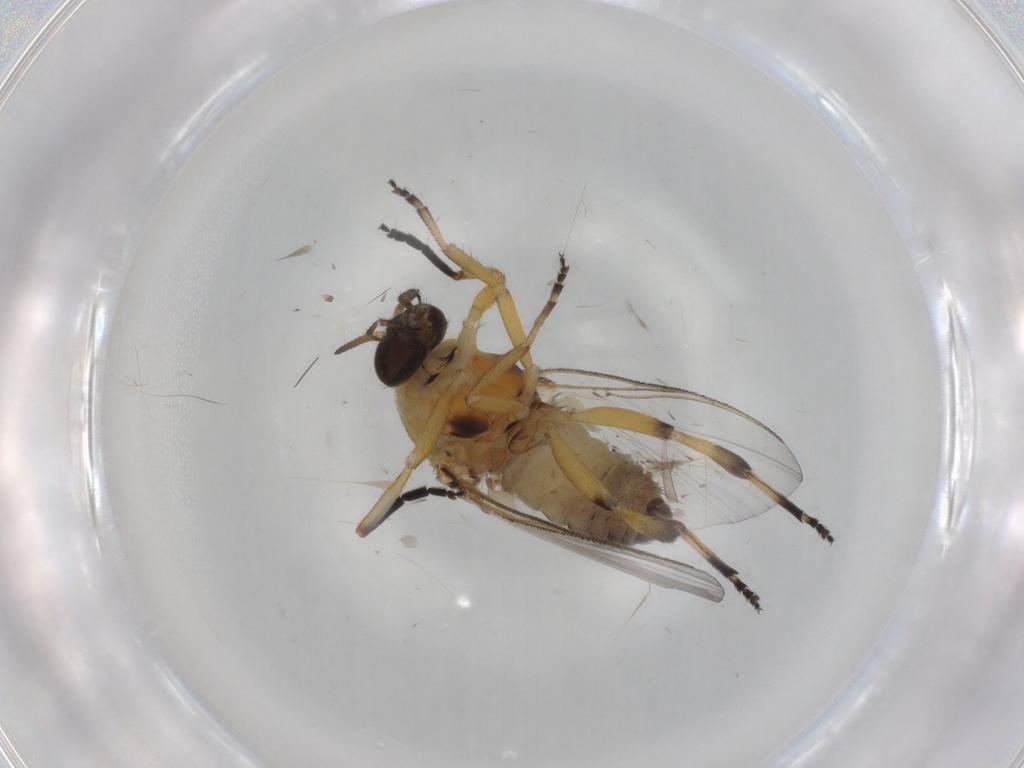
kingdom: Animalia
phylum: Arthropoda
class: Insecta
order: Diptera
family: Simuliidae
